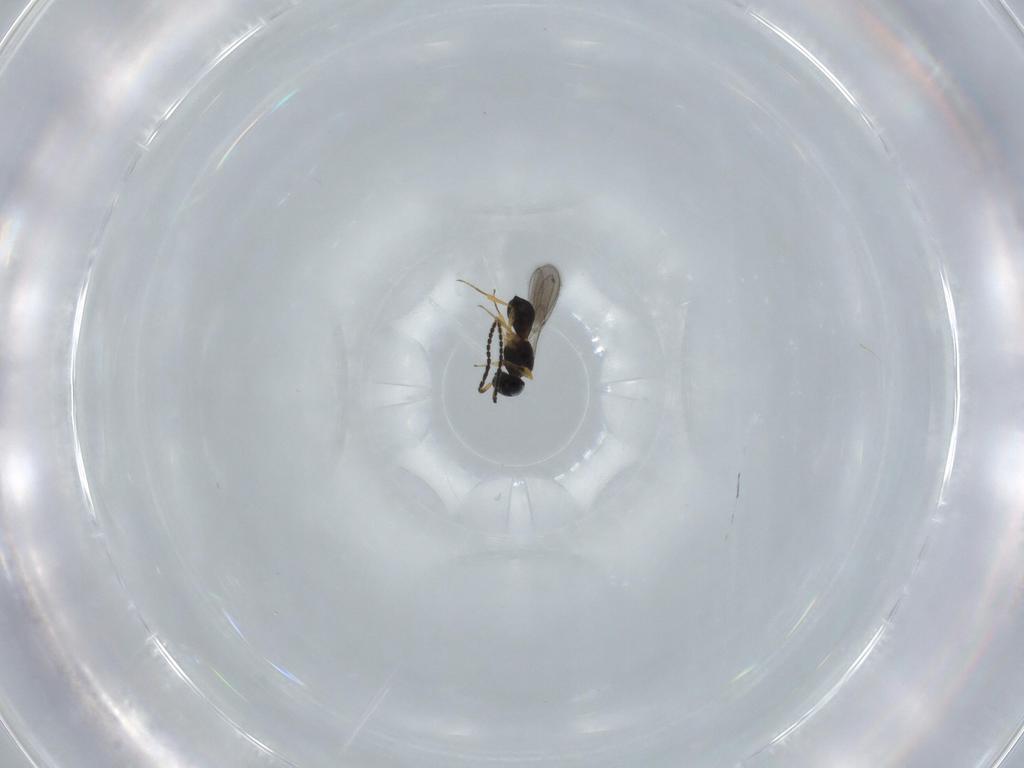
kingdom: Animalia
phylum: Arthropoda
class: Insecta
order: Hymenoptera
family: Scelionidae
